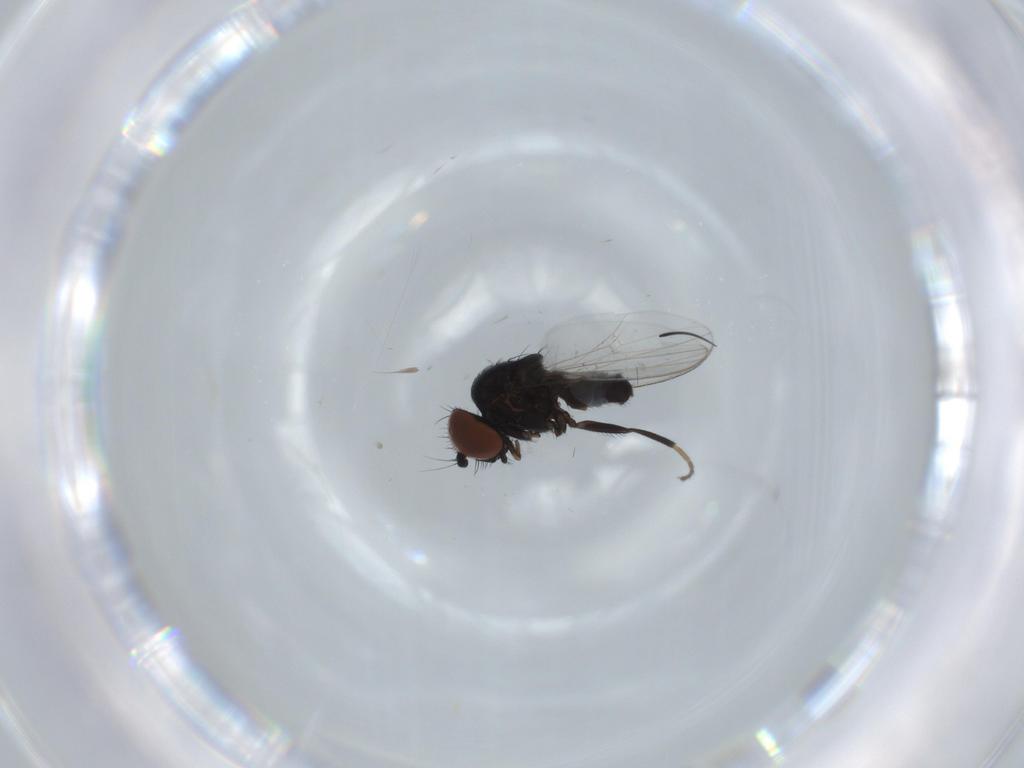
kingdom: Animalia
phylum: Arthropoda
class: Insecta
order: Diptera
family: Milichiidae
